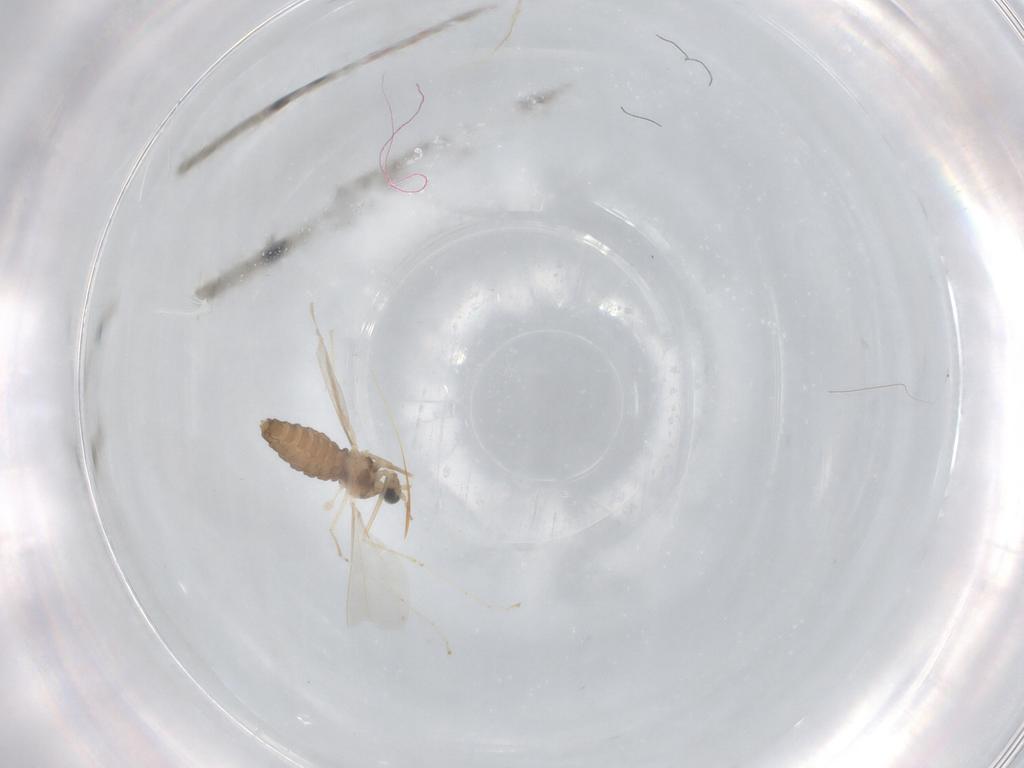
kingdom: Animalia
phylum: Arthropoda
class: Insecta
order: Diptera
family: Cecidomyiidae
